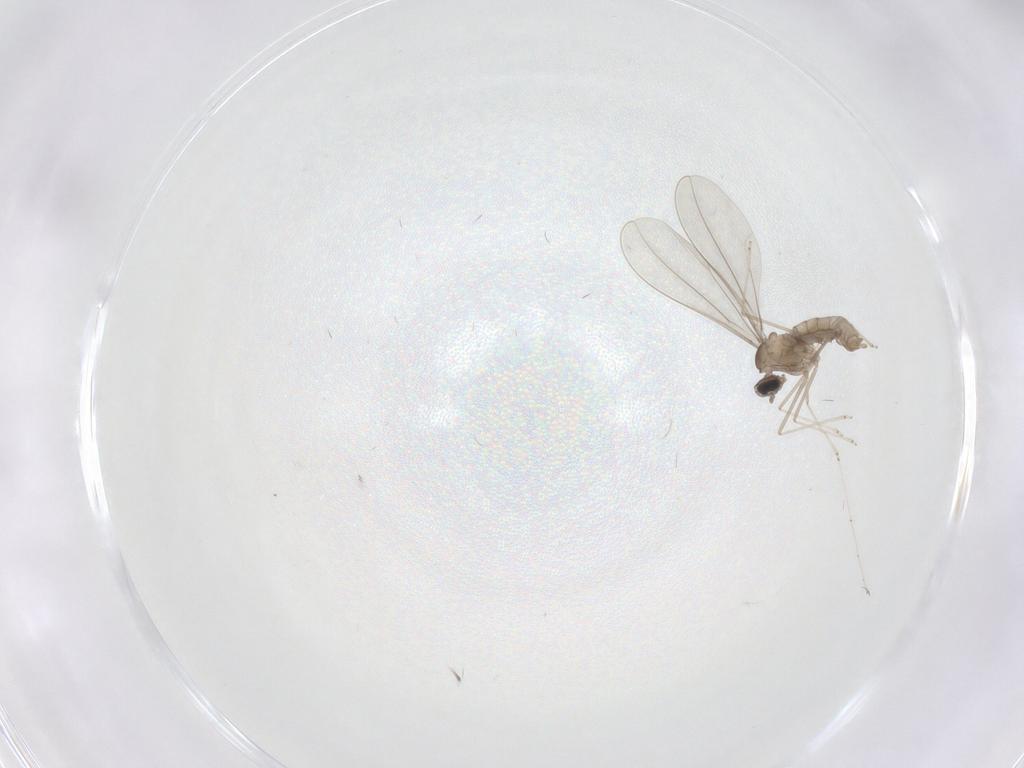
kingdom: Animalia
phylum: Arthropoda
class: Insecta
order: Diptera
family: Cecidomyiidae
